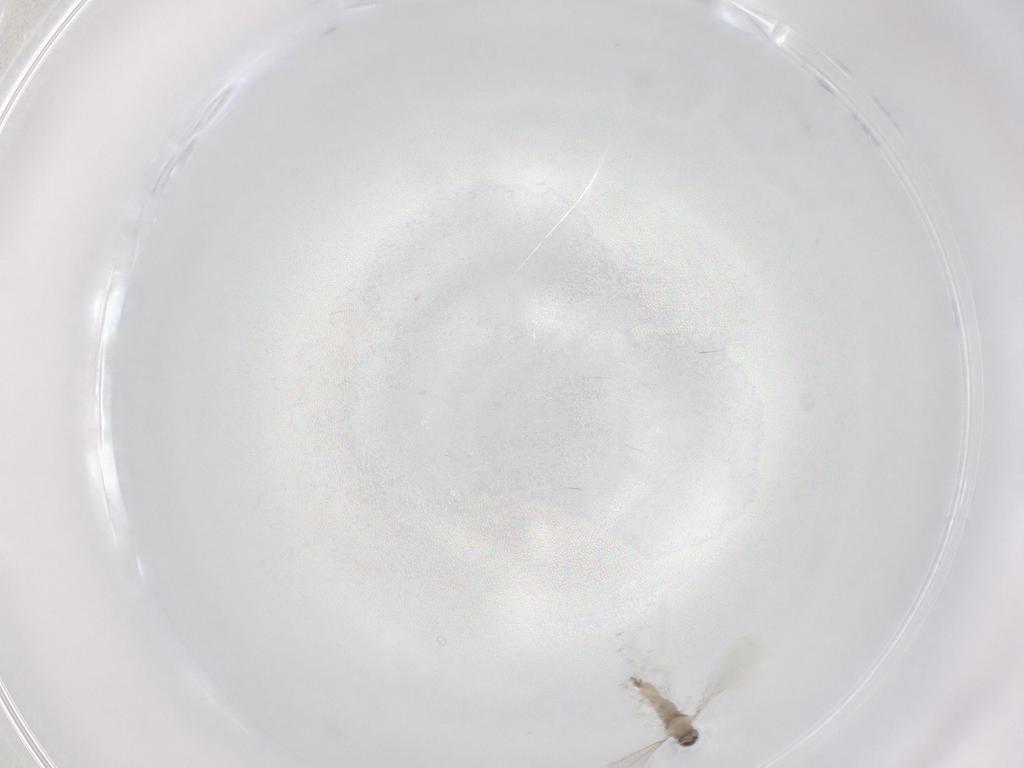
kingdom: Animalia
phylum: Arthropoda
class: Insecta
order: Diptera
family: Cecidomyiidae
